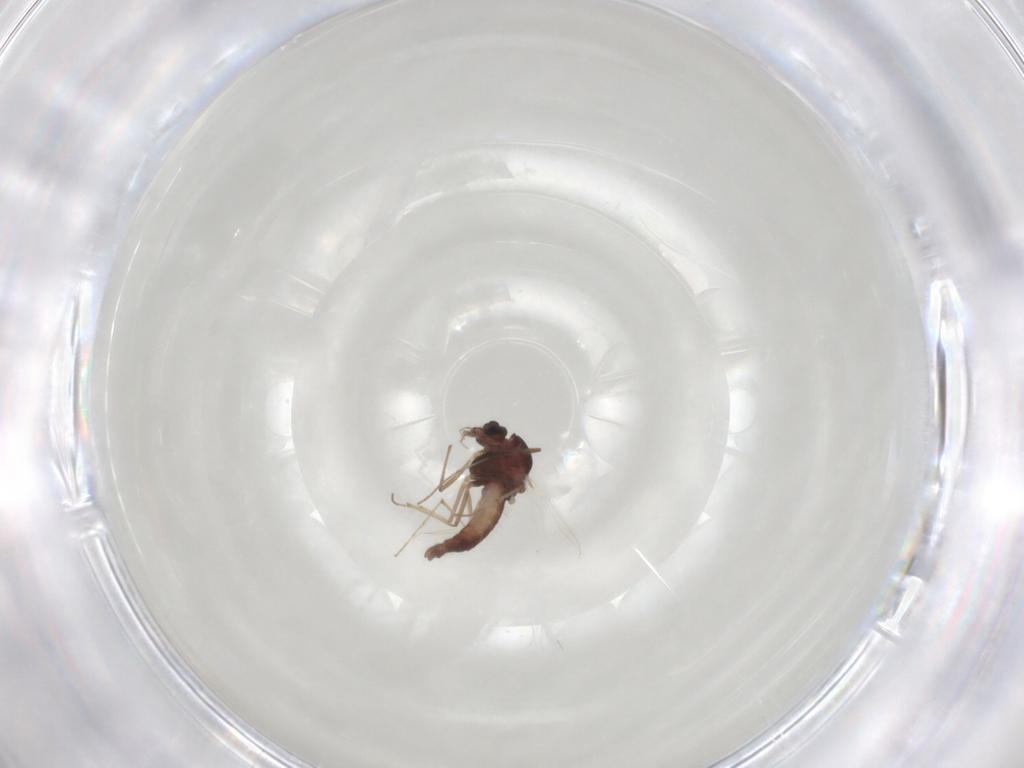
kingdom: Animalia
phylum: Arthropoda
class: Insecta
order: Diptera
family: Chironomidae
